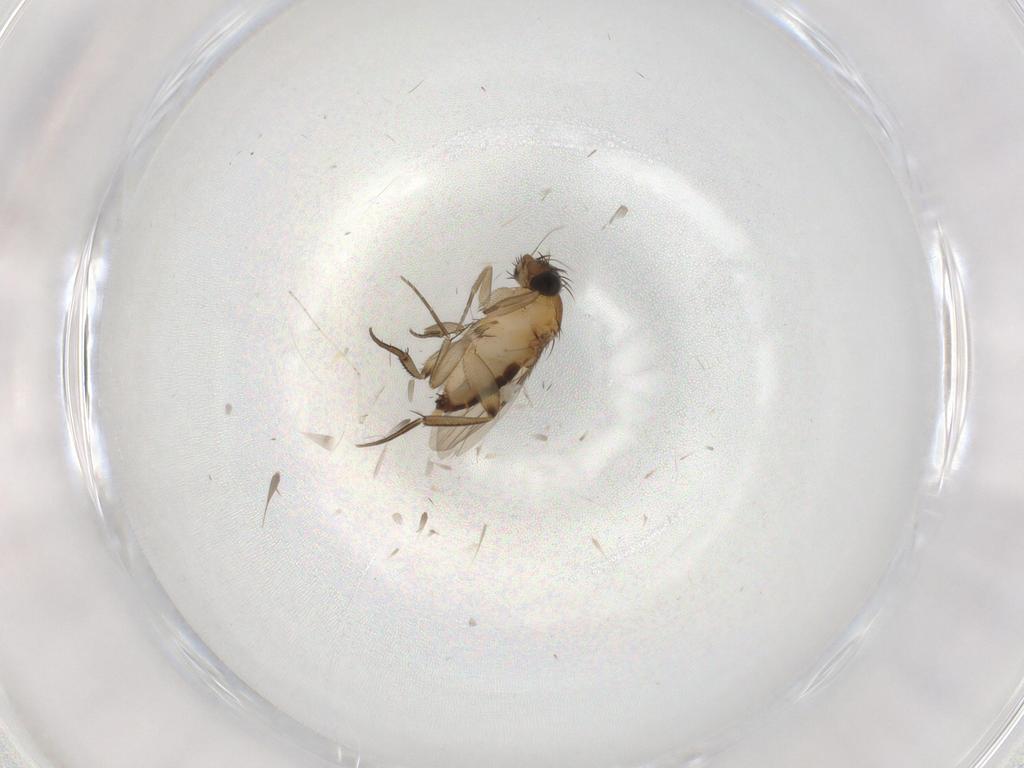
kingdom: Animalia
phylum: Arthropoda
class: Insecta
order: Diptera
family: Phoridae
